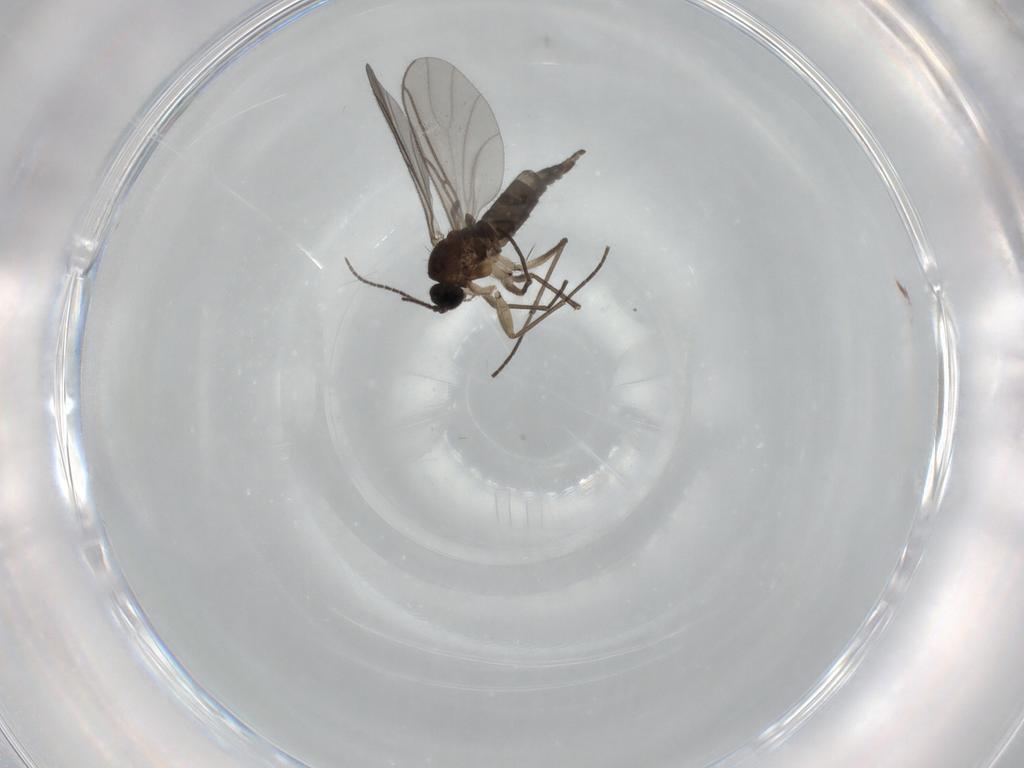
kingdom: Animalia
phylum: Arthropoda
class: Insecta
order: Diptera
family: Sciaridae
